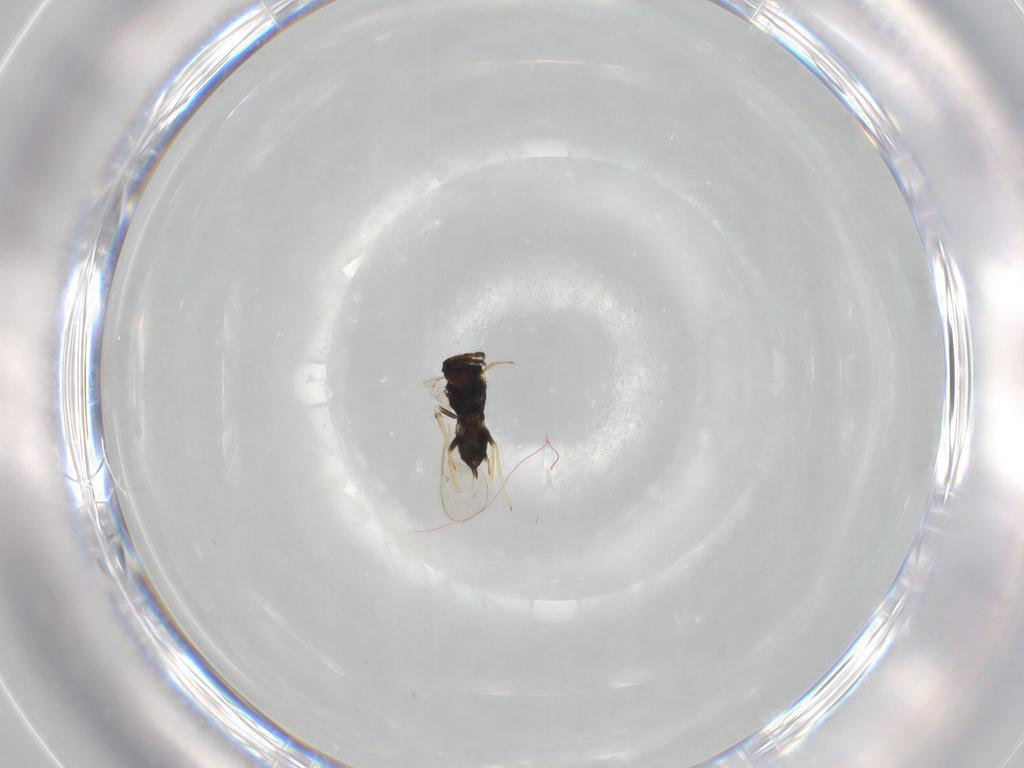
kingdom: Animalia
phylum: Arthropoda
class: Insecta
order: Hymenoptera
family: Eulophidae
